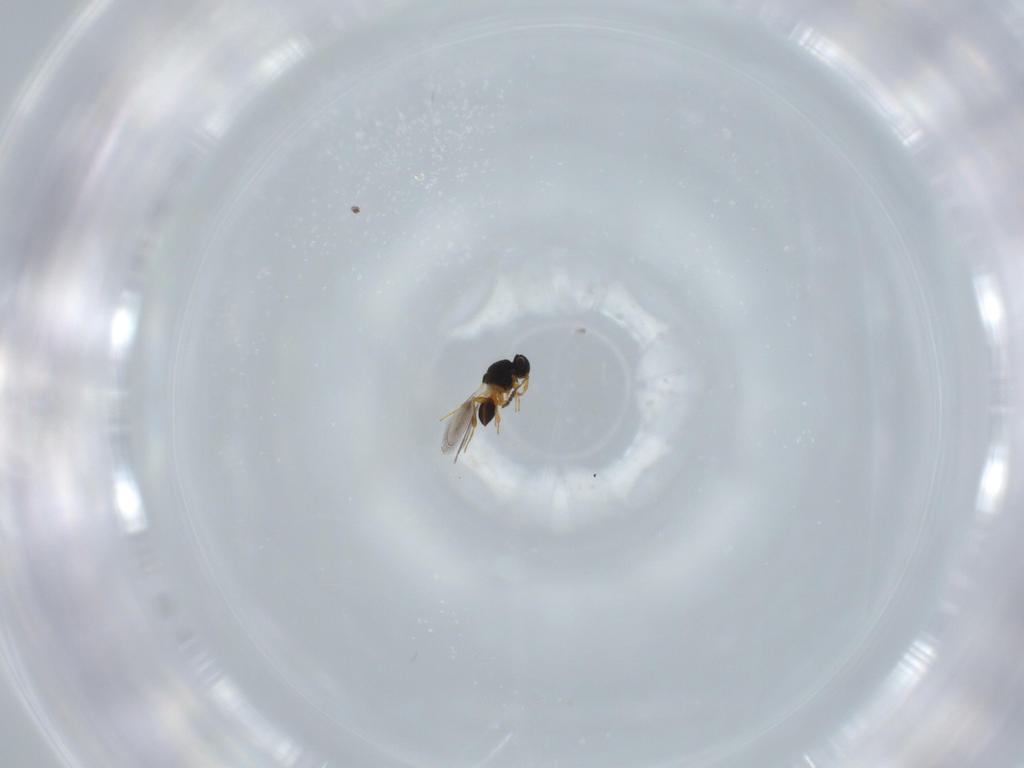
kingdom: Animalia
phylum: Arthropoda
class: Insecta
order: Hymenoptera
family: Platygastridae
